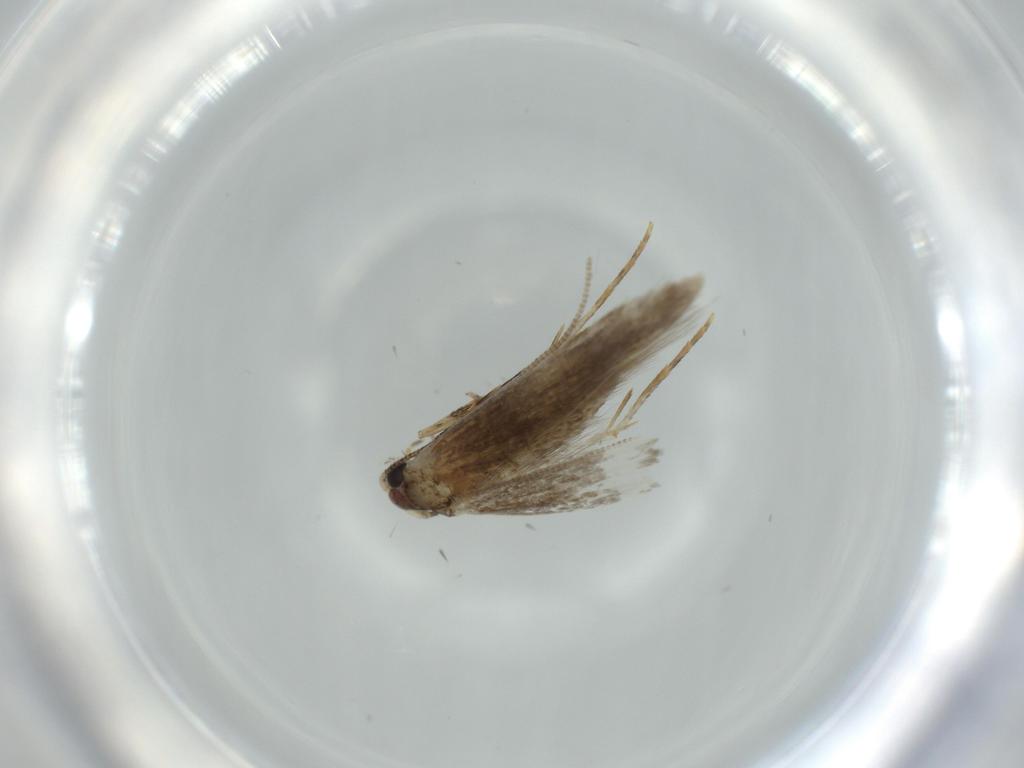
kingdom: Animalia
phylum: Arthropoda
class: Insecta
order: Lepidoptera
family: Tineidae
